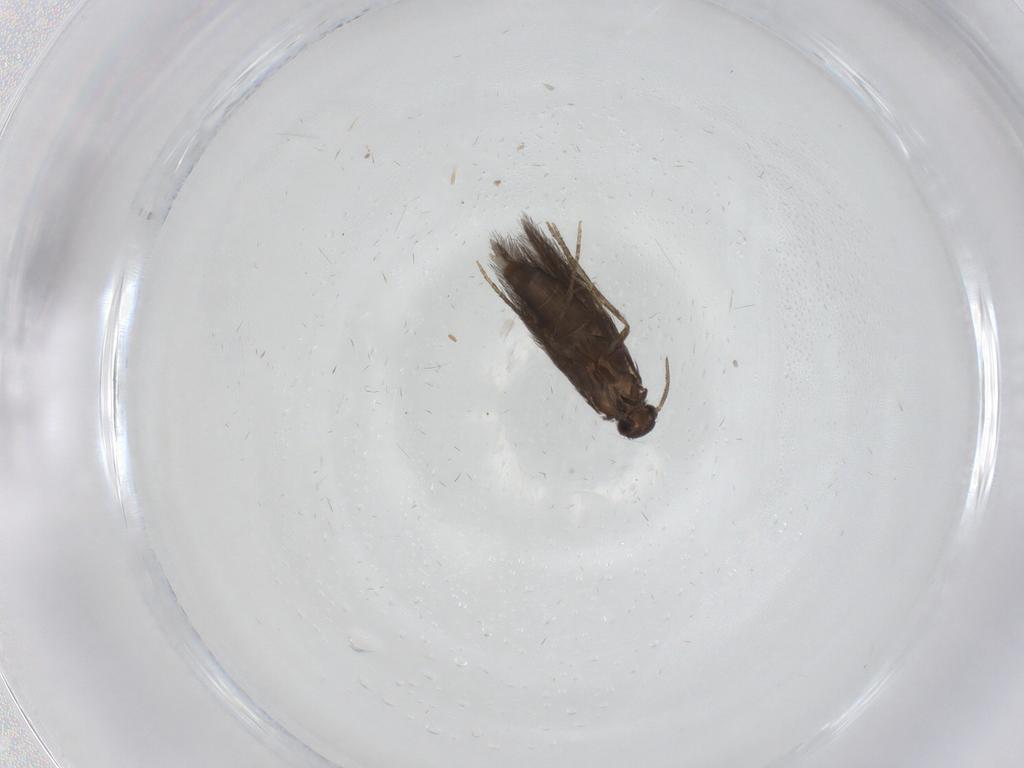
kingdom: Animalia
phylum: Arthropoda
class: Insecta
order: Trichoptera
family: Hydroptilidae
